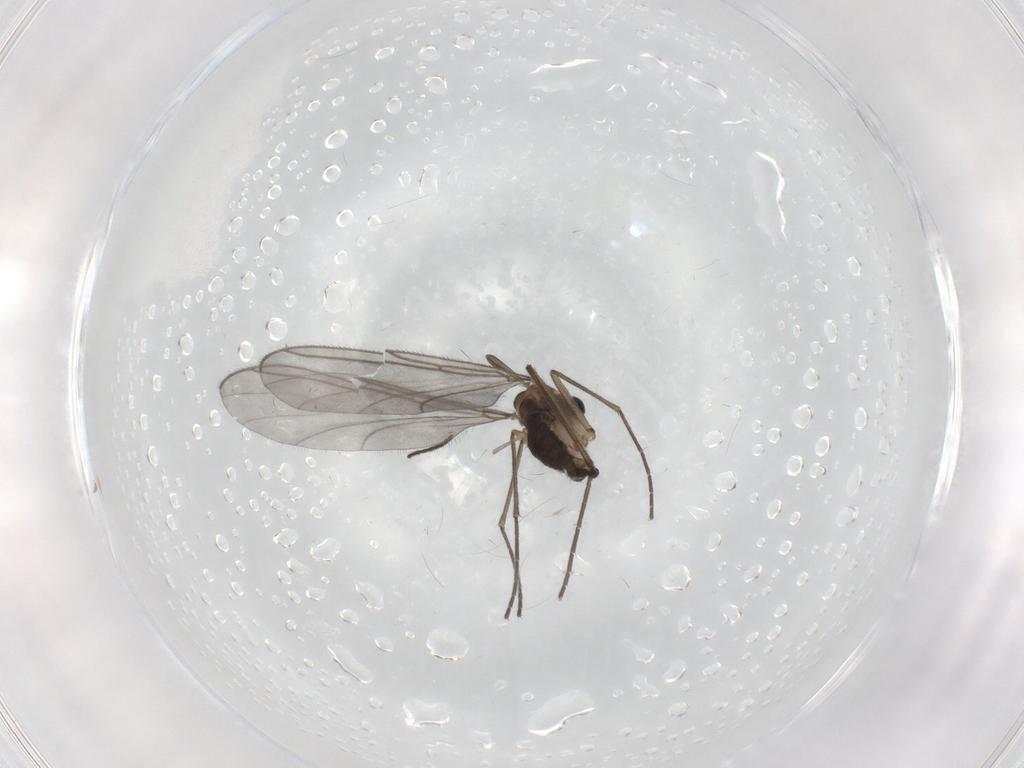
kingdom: Animalia
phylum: Arthropoda
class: Insecta
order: Diptera
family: Sciaridae
